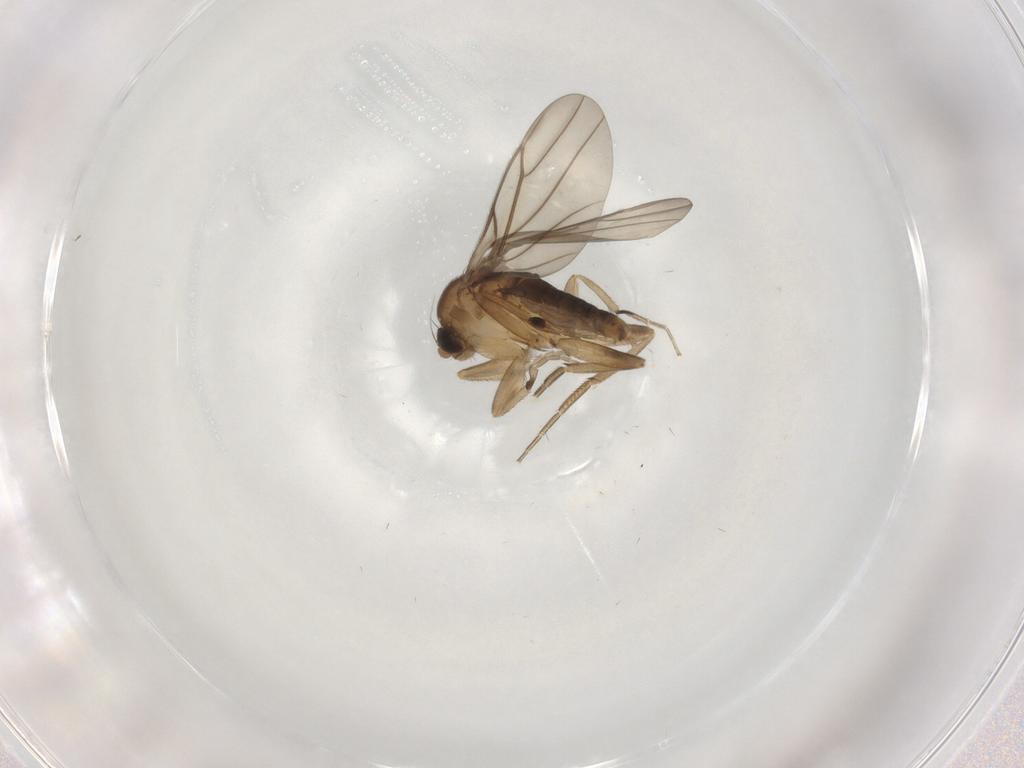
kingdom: Animalia
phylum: Arthropoda
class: Insecta
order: Diptera
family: Phoridae
